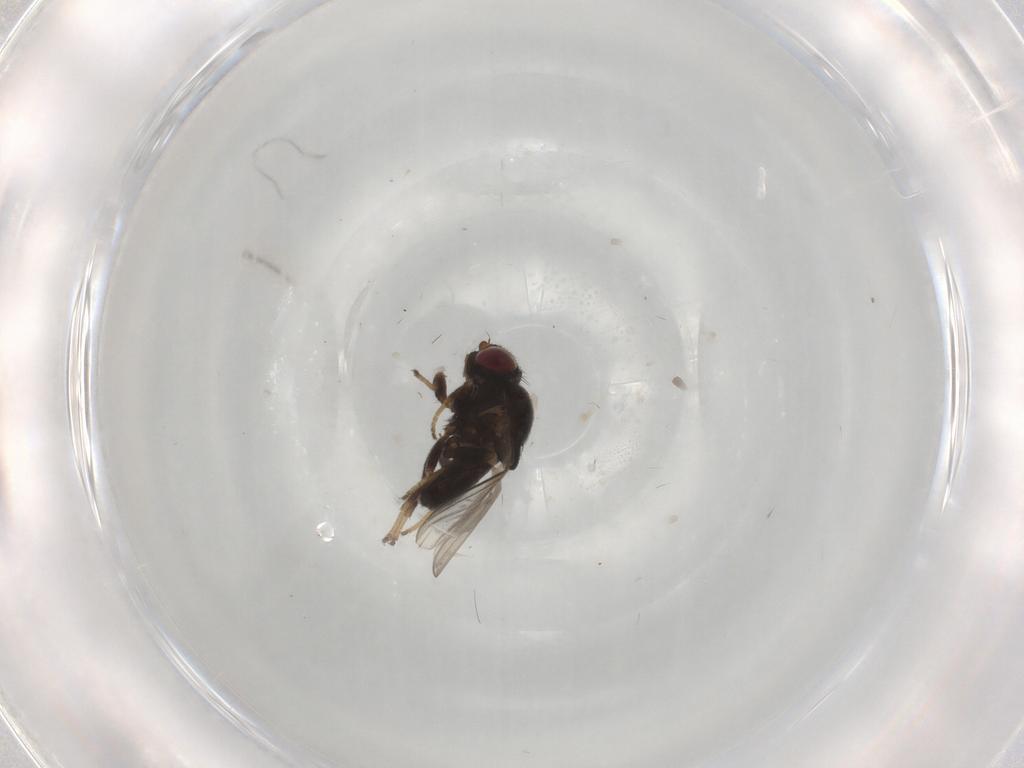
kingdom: Animalia
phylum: Arthropoda
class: Insecta
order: Diptera
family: Chloropidae
